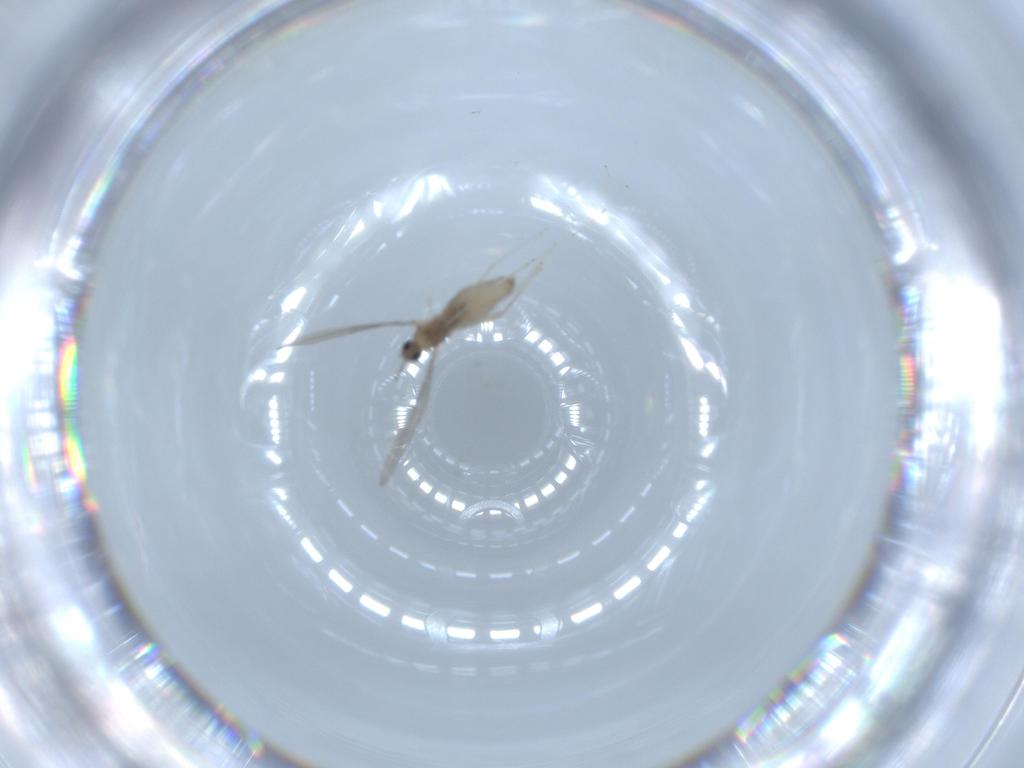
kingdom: Animalia
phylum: Arthropoda
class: Insecta
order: Diptera
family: Cecidomyiidae
